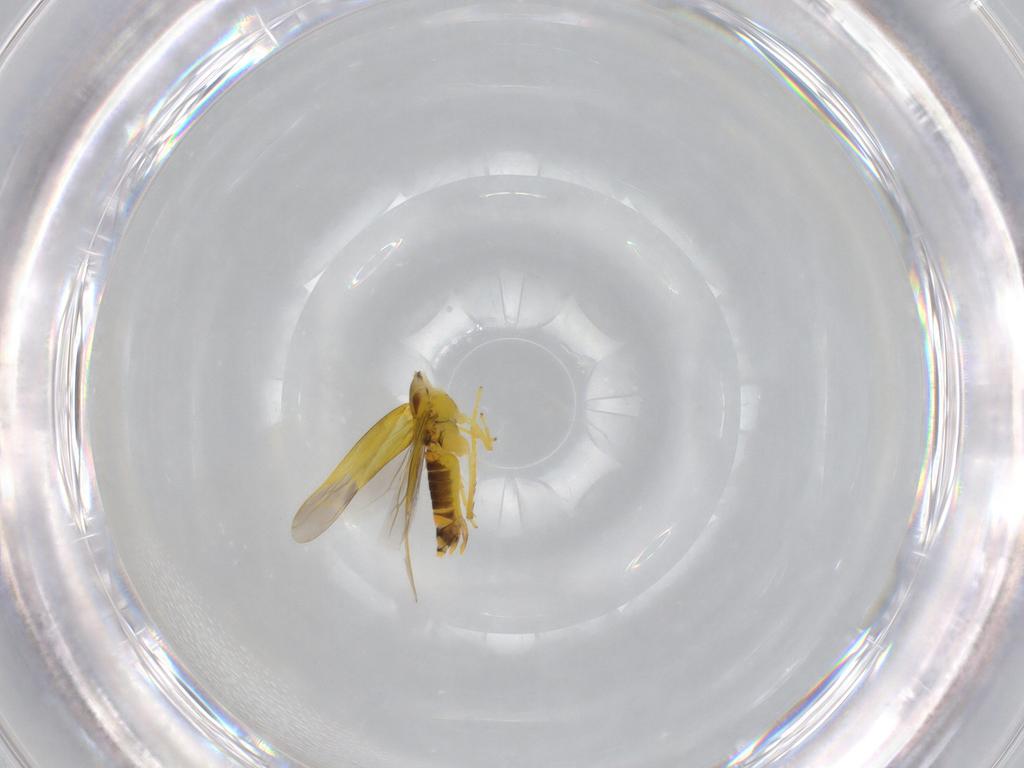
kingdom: Animalia
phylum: Arthropoda
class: Insecta
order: Hemiptera
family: Cicadellidae
